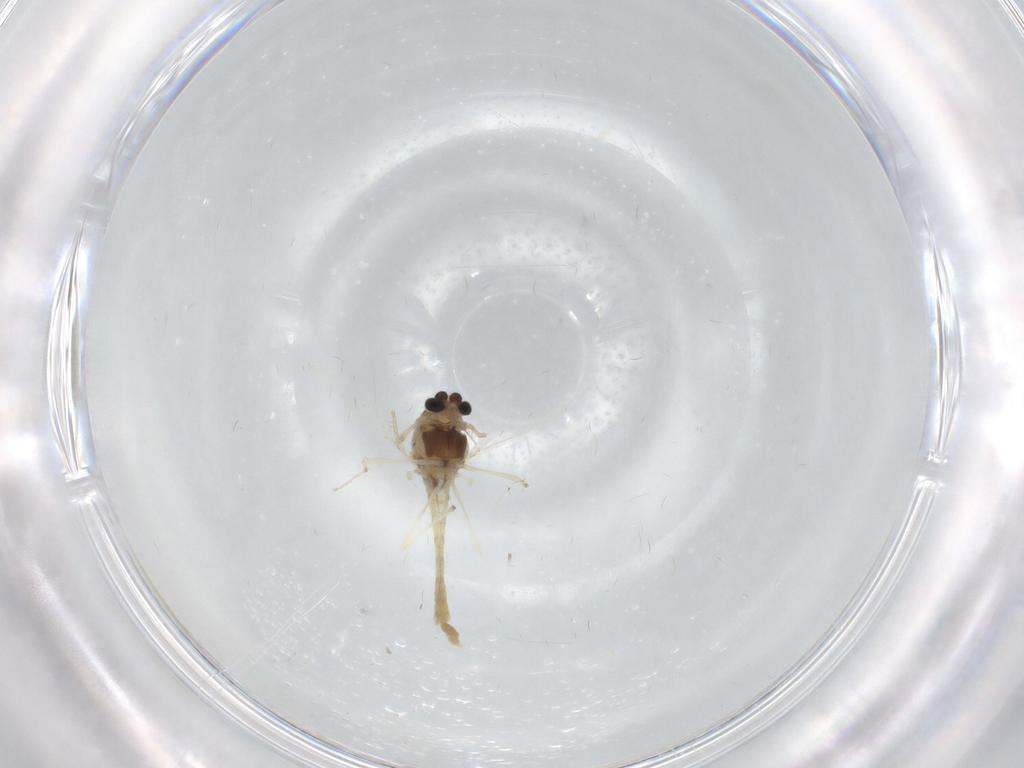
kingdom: Animalia
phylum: Arthropoda
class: Insecta
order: Diptera
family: Chironomidae
